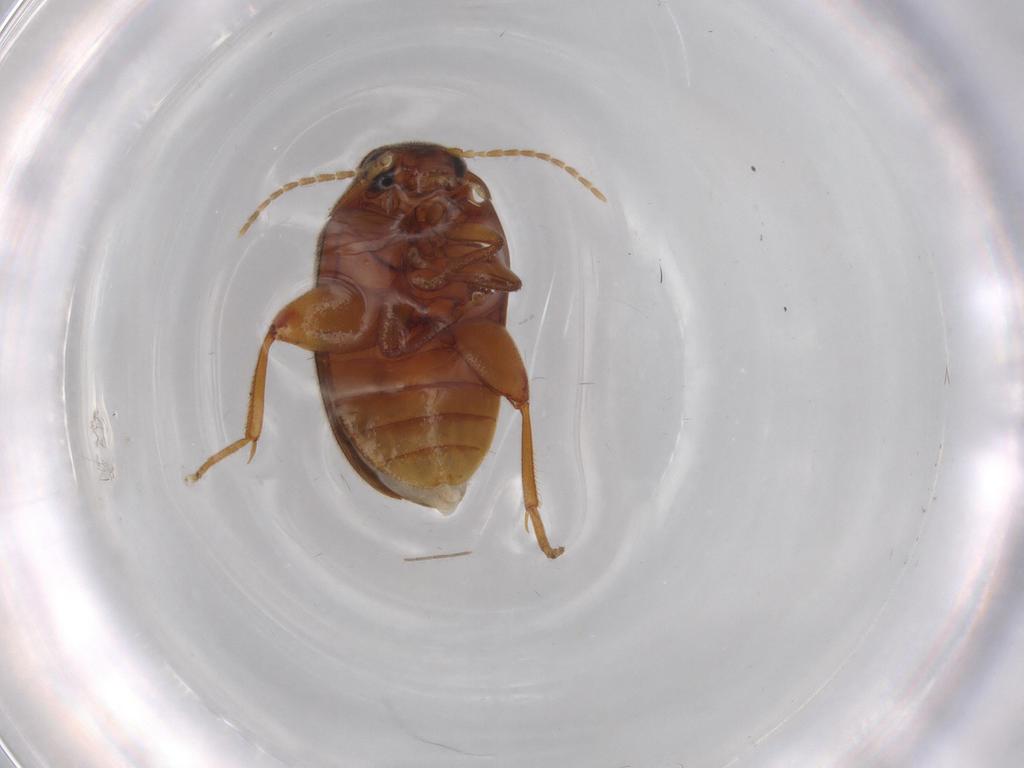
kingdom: Animalia
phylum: Arthropoda
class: Insecta
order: Coleoptera
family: Scirtidae
